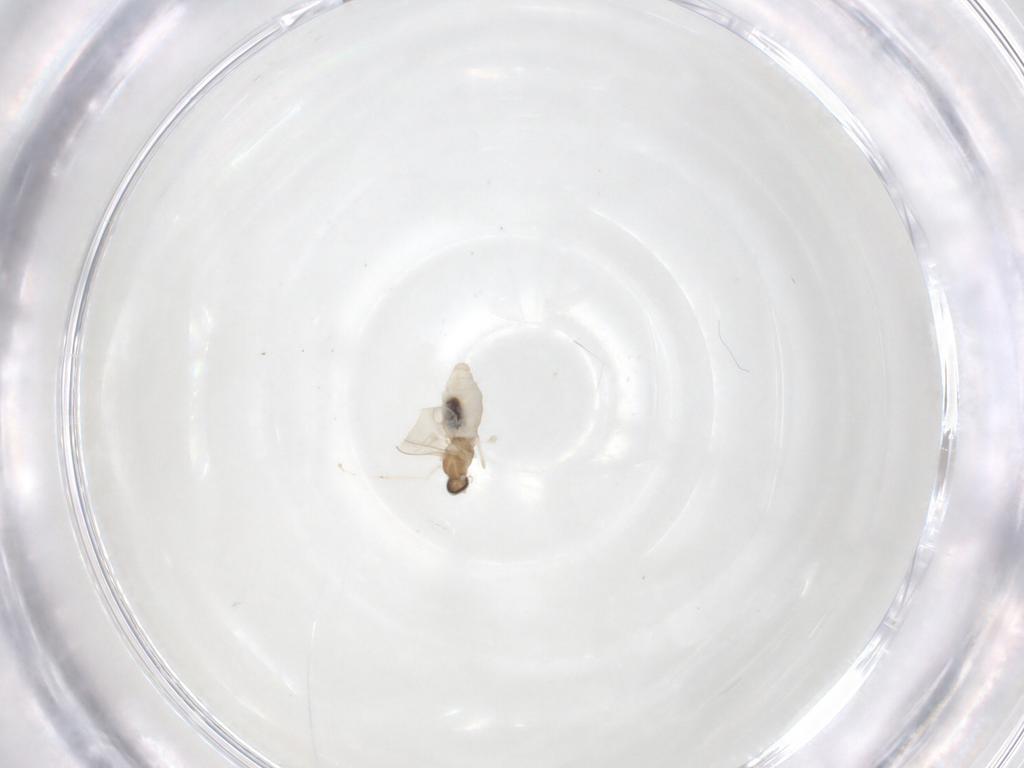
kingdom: Animalia
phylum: Arthropoda
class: Insecta
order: Diptera
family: Cecidomyiidae
